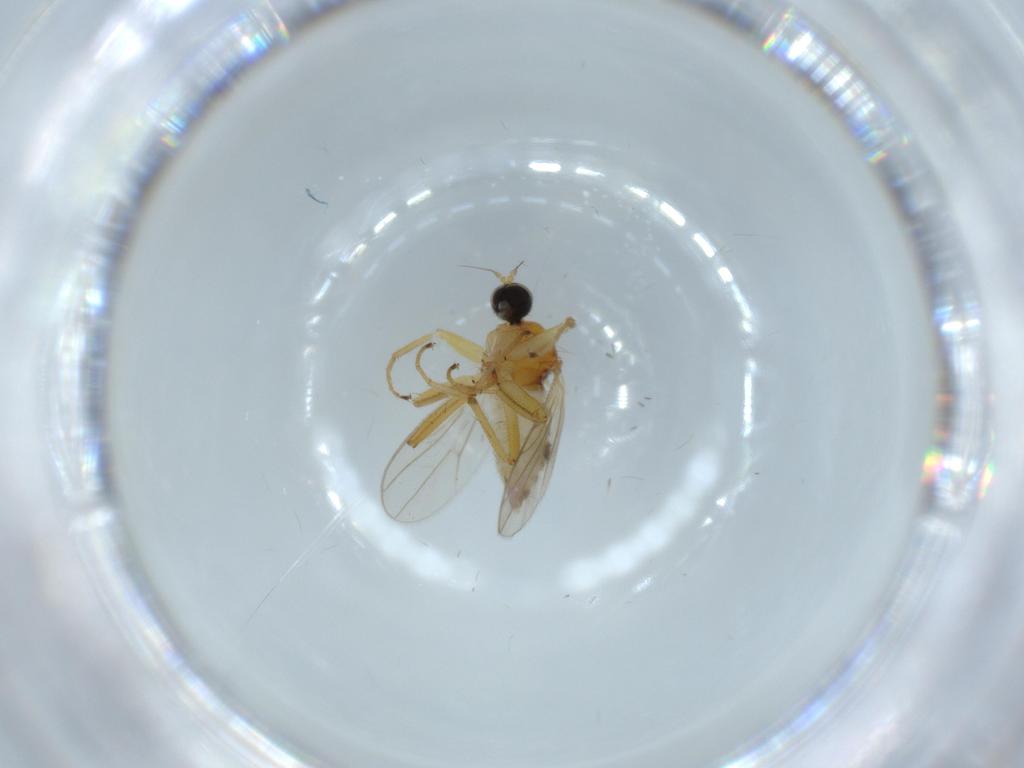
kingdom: Animalia
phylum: Arthropoda
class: Insecta
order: Diptera
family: Hybotidae
